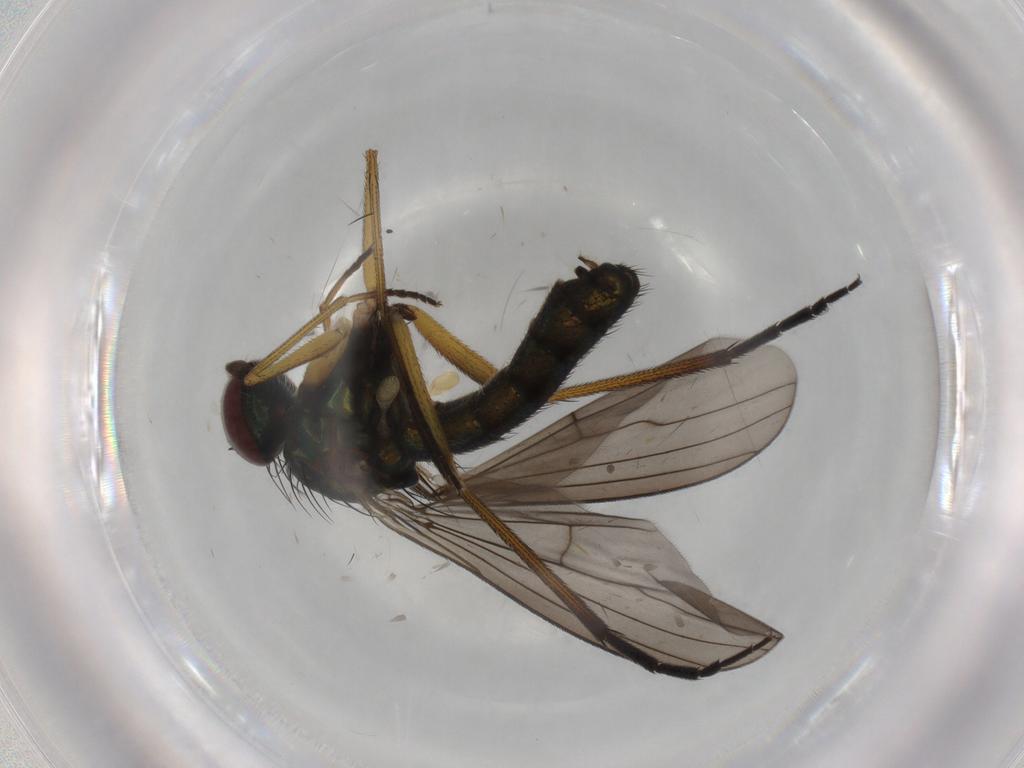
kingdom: Animalia
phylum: Arthropoda
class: Insecta
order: Diptera
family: Dolichopodidae
